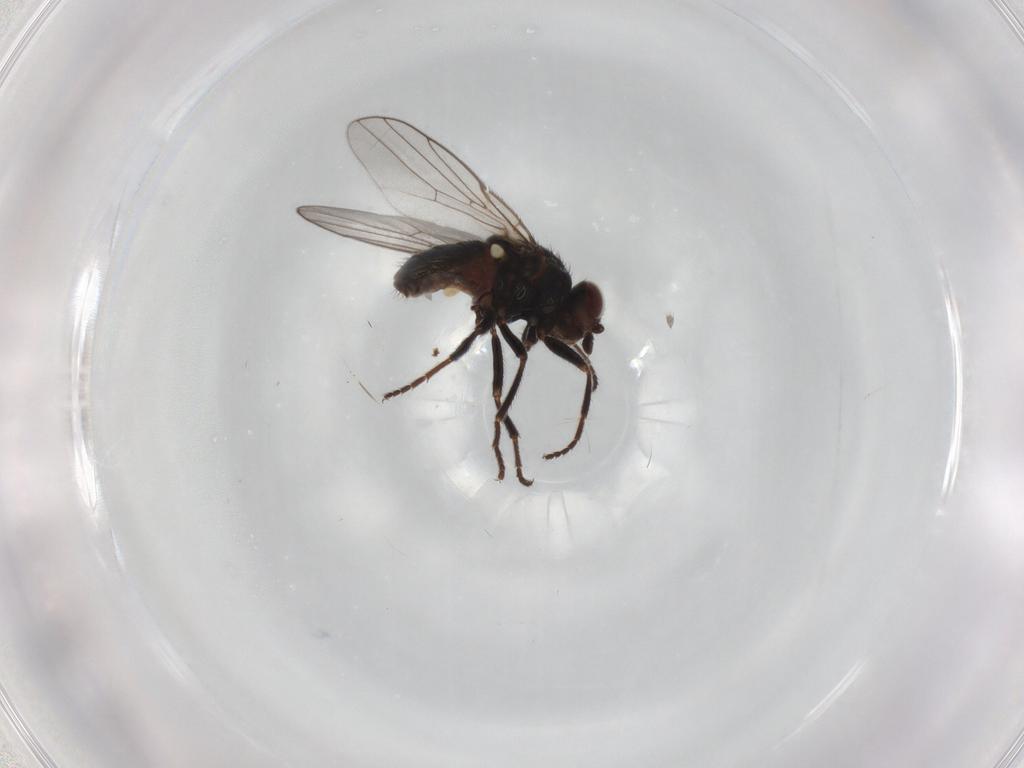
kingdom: Animalia
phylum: Arthropoda
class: Insecta
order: Diptera
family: Chloropidae
